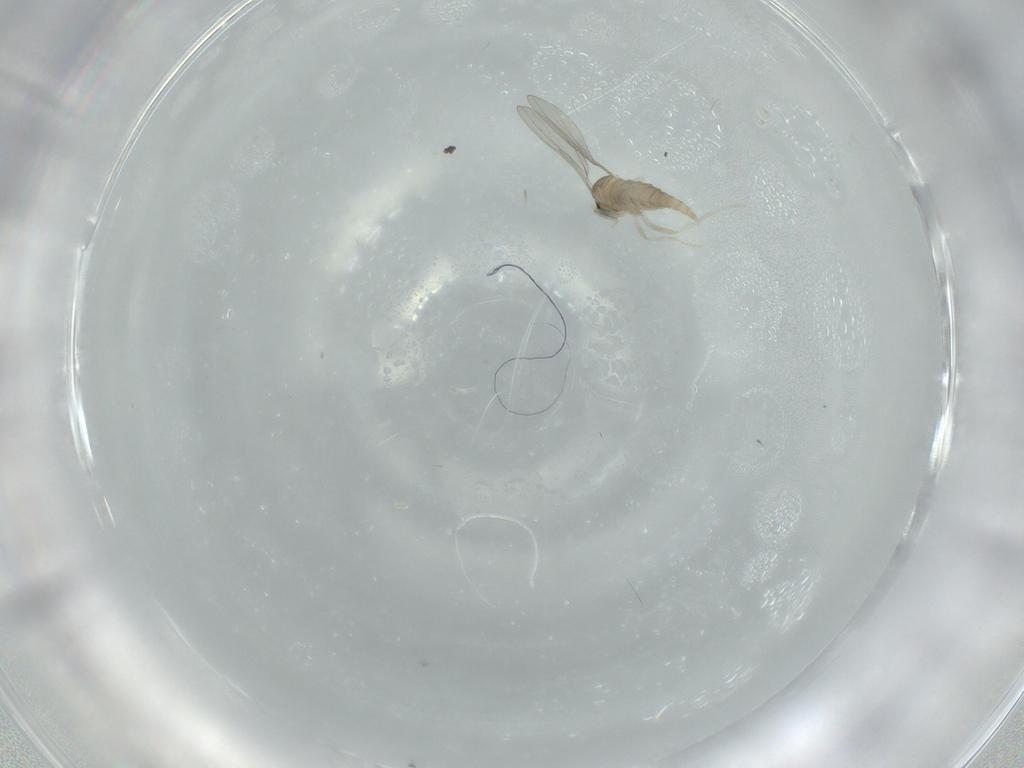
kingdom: Animalia
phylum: Arthropoda
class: Insecta
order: Diptera
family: Cecidomyiidae
